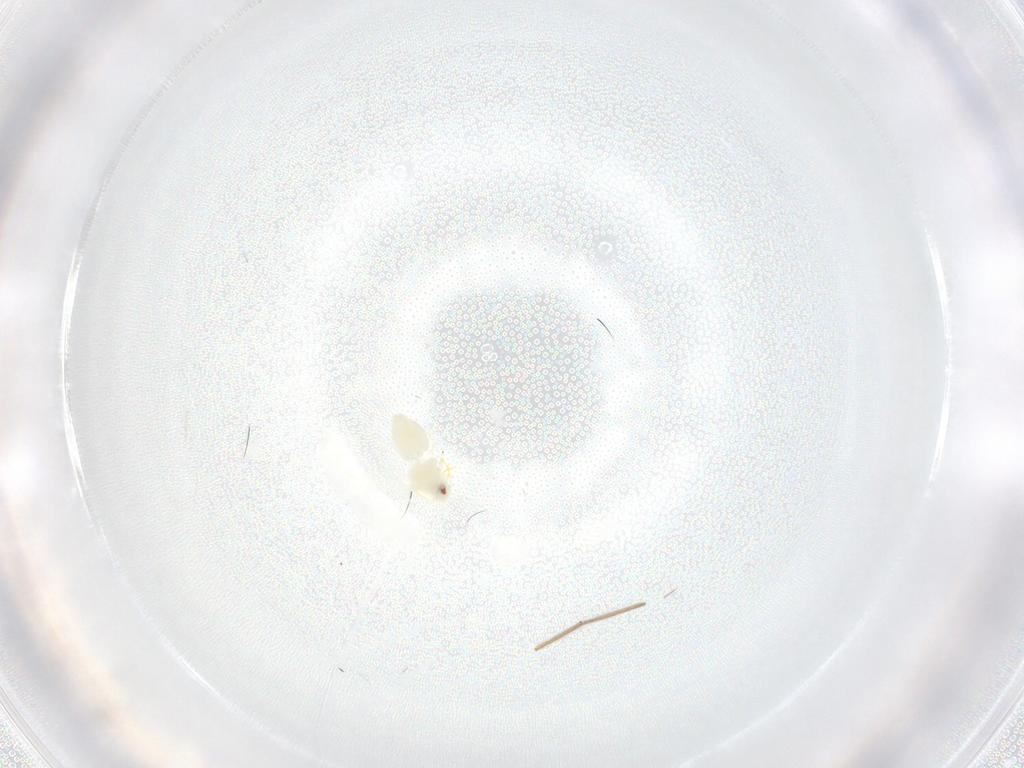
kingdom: Animalia
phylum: Arthropoda
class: Insecta
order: Hemiptera
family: Aleyrodidae
